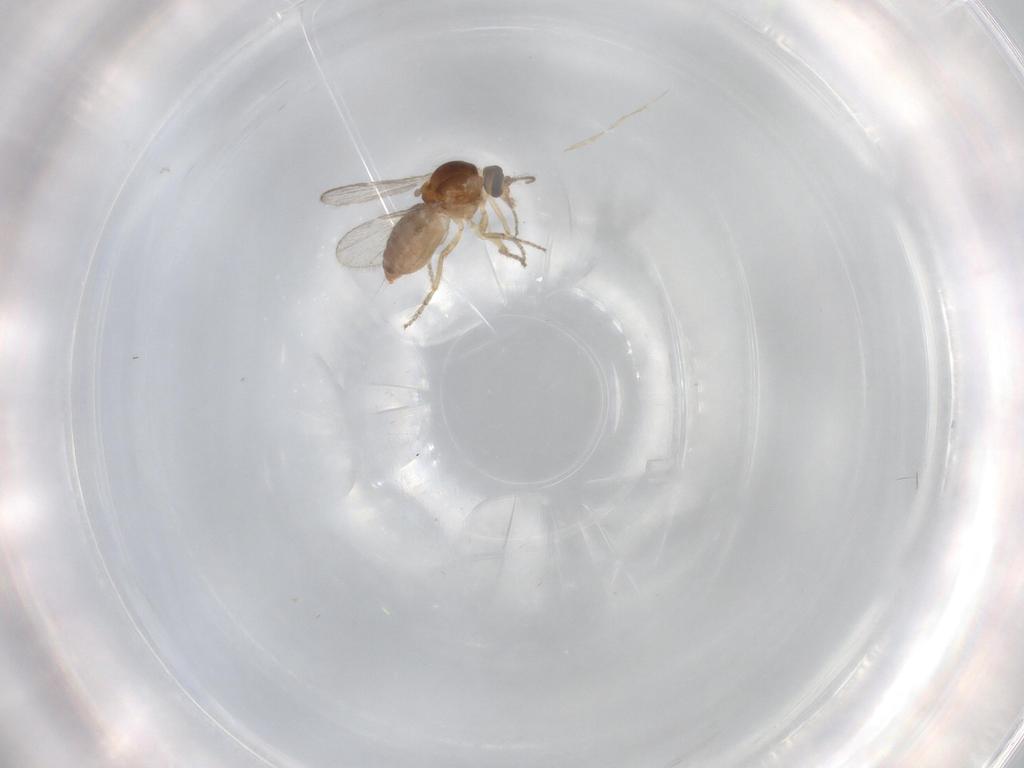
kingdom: Animalia
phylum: Arthropoda
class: Insecta
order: Diptera
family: Ceratopogonidae
